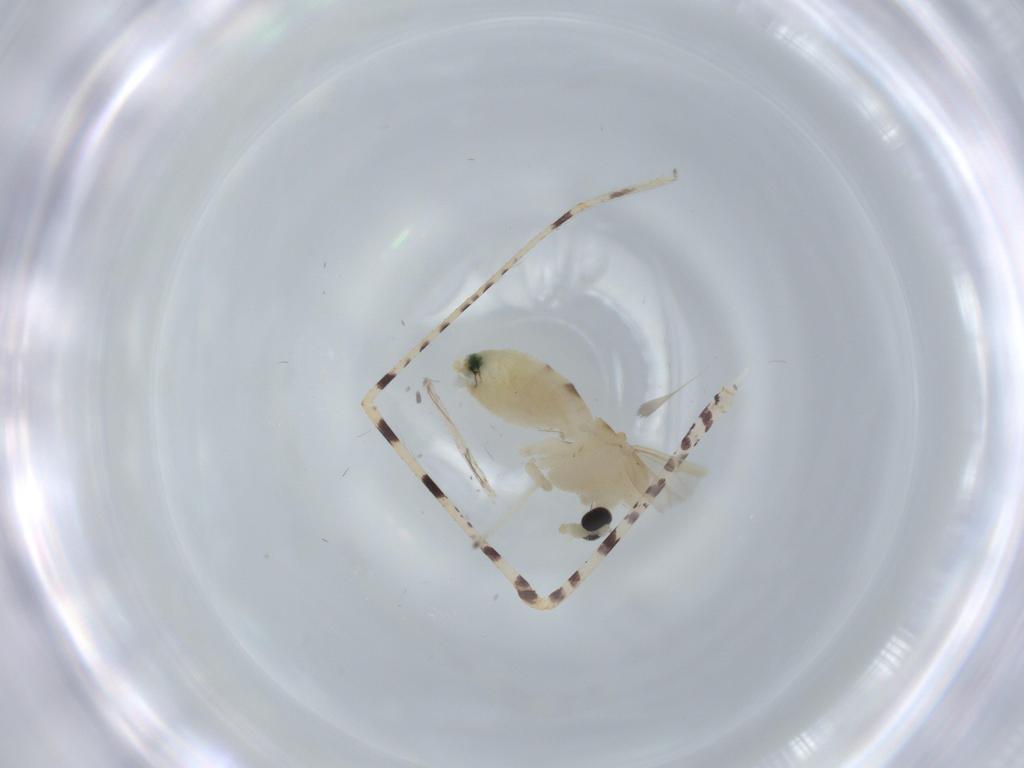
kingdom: Animalia
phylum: Arthropoda
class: Insecta
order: Diptera
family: Chironomidae
